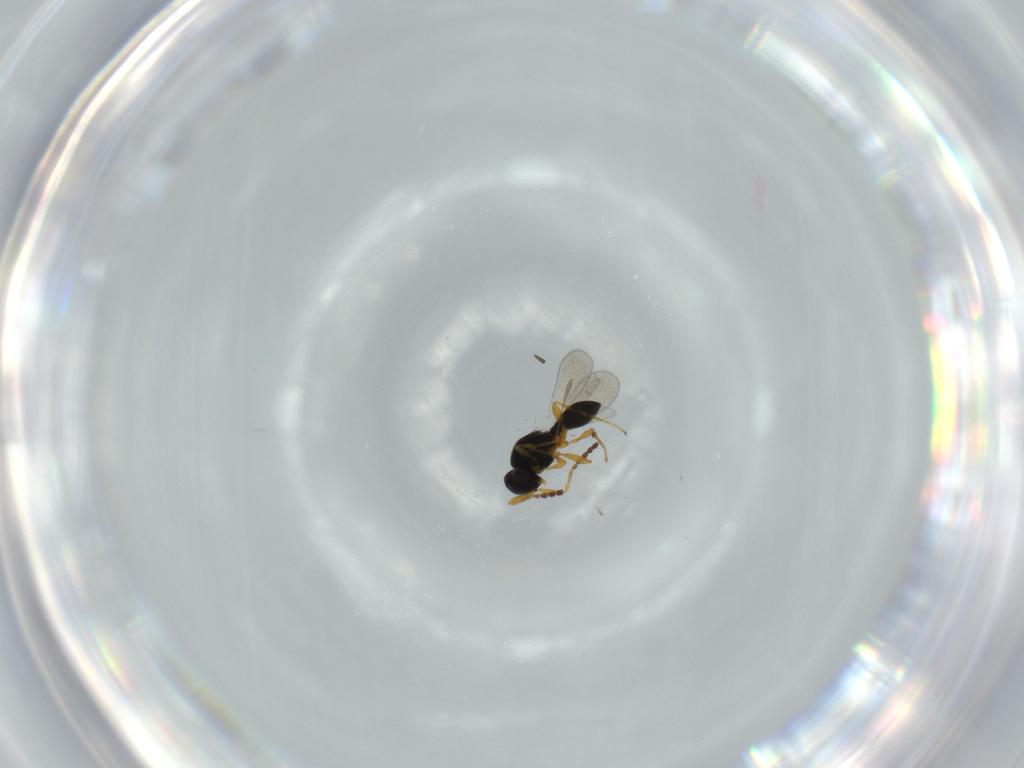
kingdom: Animalia
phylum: Arthropoda
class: Insecta
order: Hymenoptera
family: Platygastridae
